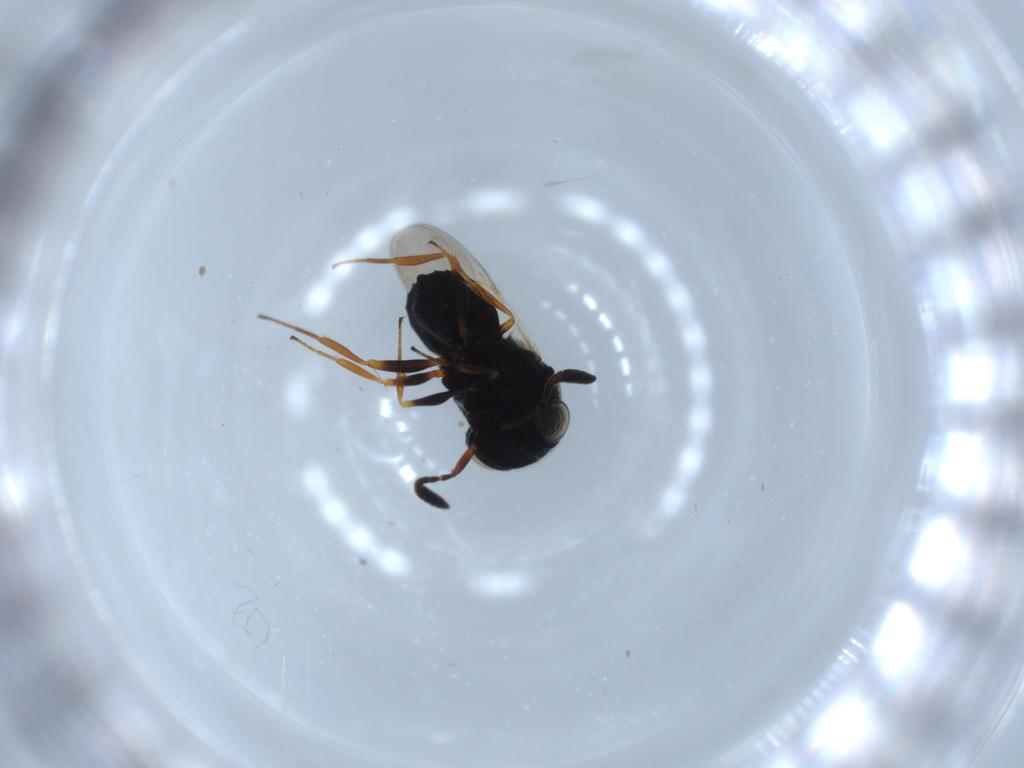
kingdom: Animalia
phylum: Arthropoda
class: Insecta
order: Hymenoptera
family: Scelionidae
